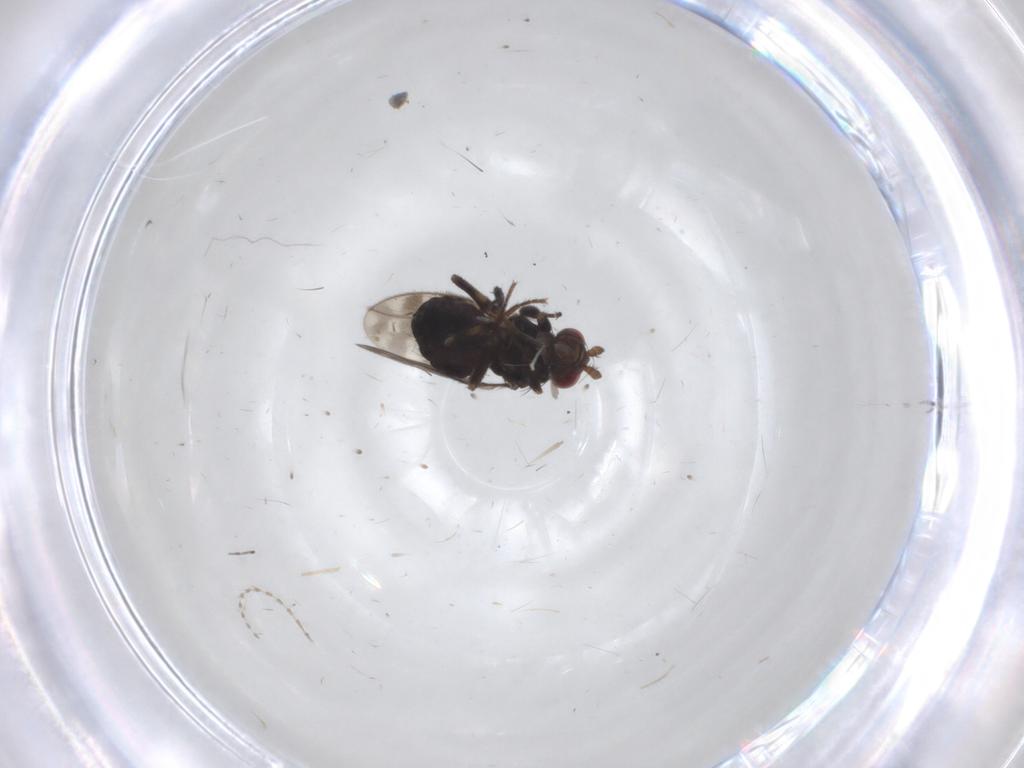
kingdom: Animalia
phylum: Arthropoda
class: Insecta
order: Diptera
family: Sphaeroceridae
